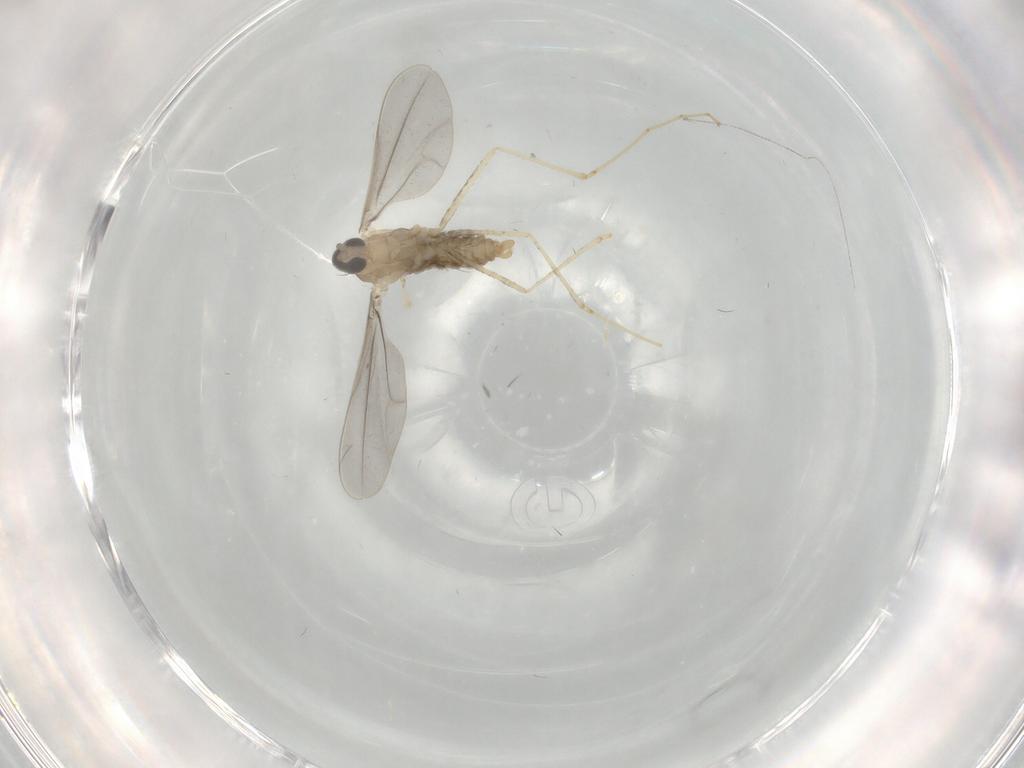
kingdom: Animalia
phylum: Arthropoda
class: Insecta
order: Diptera
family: Cecidomyiidae
